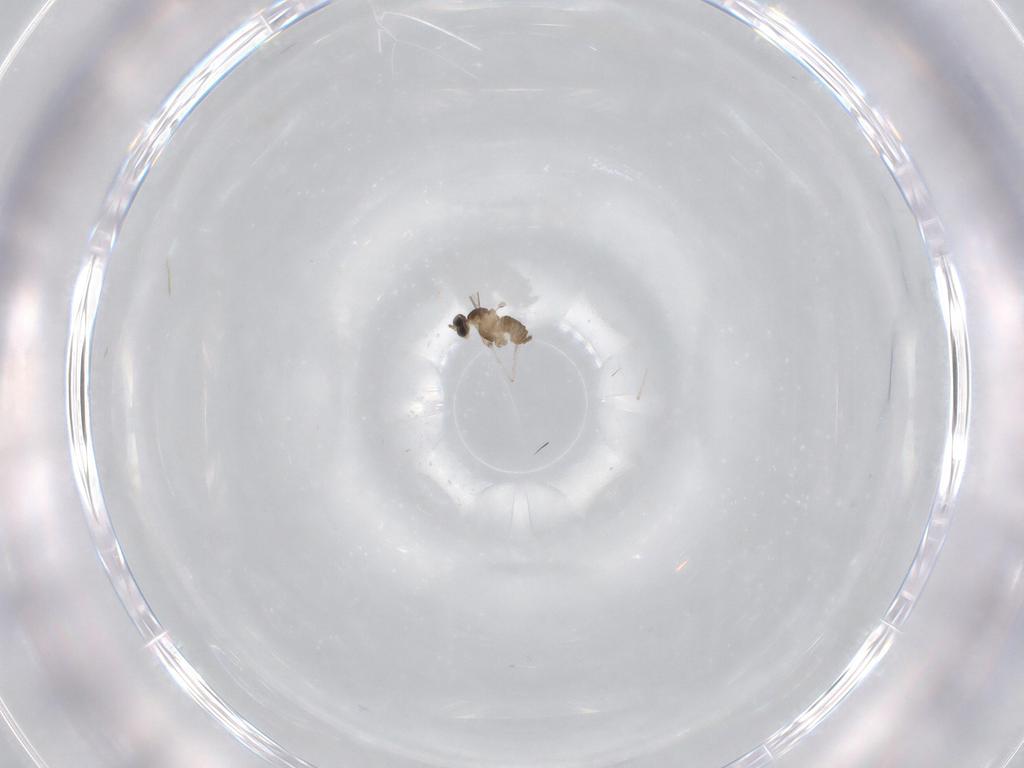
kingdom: Animalia
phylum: Arthropoda
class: Insecta
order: Diptera
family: Cecidomyiidae
